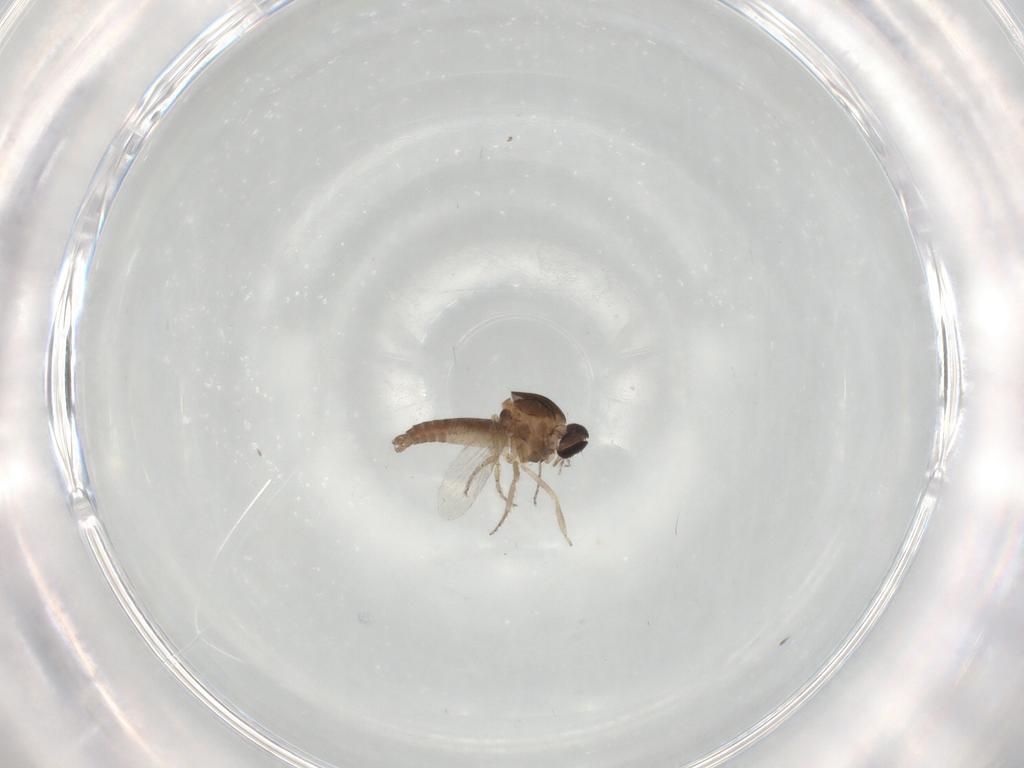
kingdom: Animalia
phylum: Arthropoda
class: Insecta
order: Diptera
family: Ceratopogonidae
